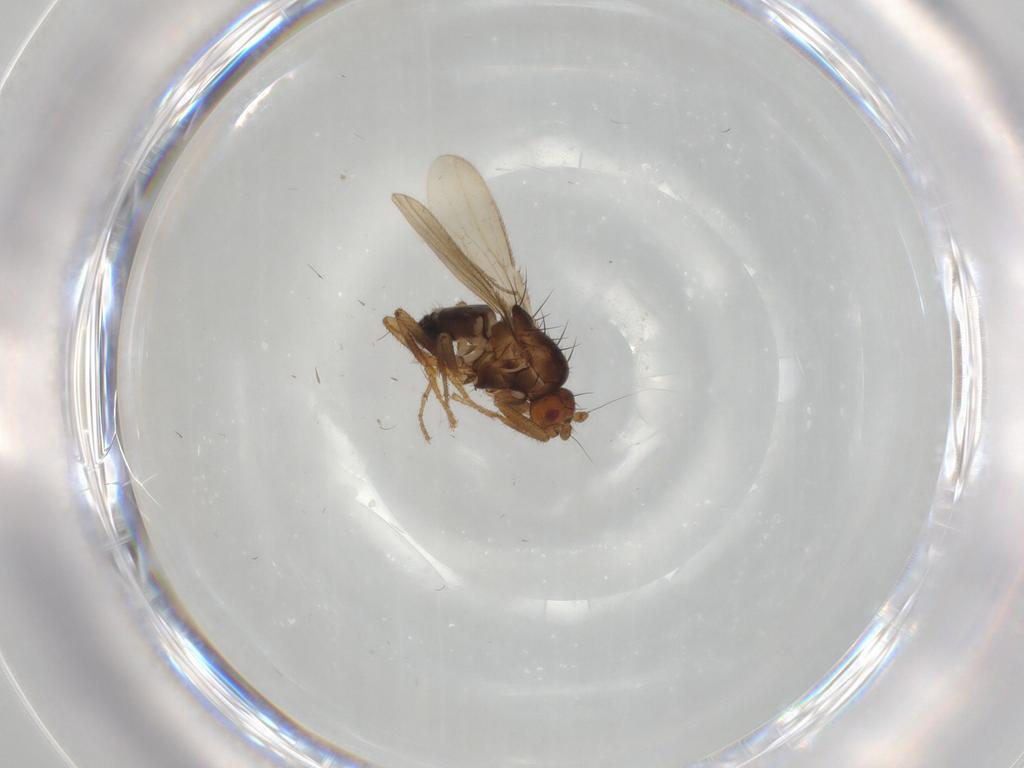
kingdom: Animalia
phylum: Arthropoda
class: Insecta
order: Diptera
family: Sphaeroceridae
